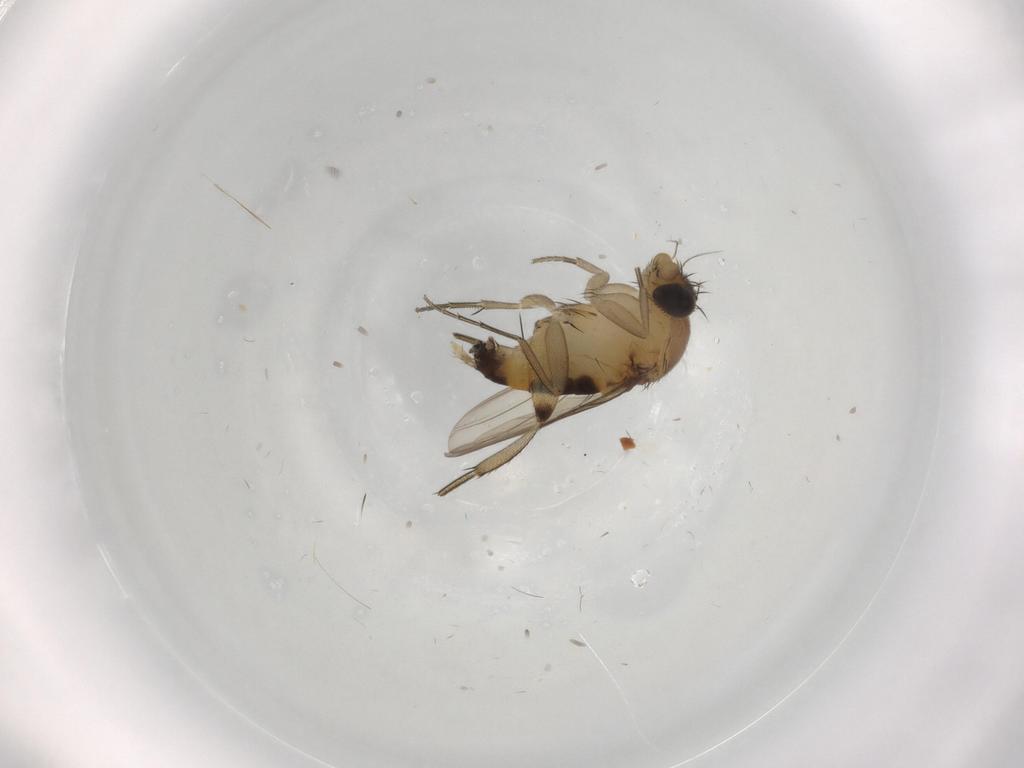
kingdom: Animalia
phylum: Arthropoda
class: Insecta
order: Diptera
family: Phoridae
